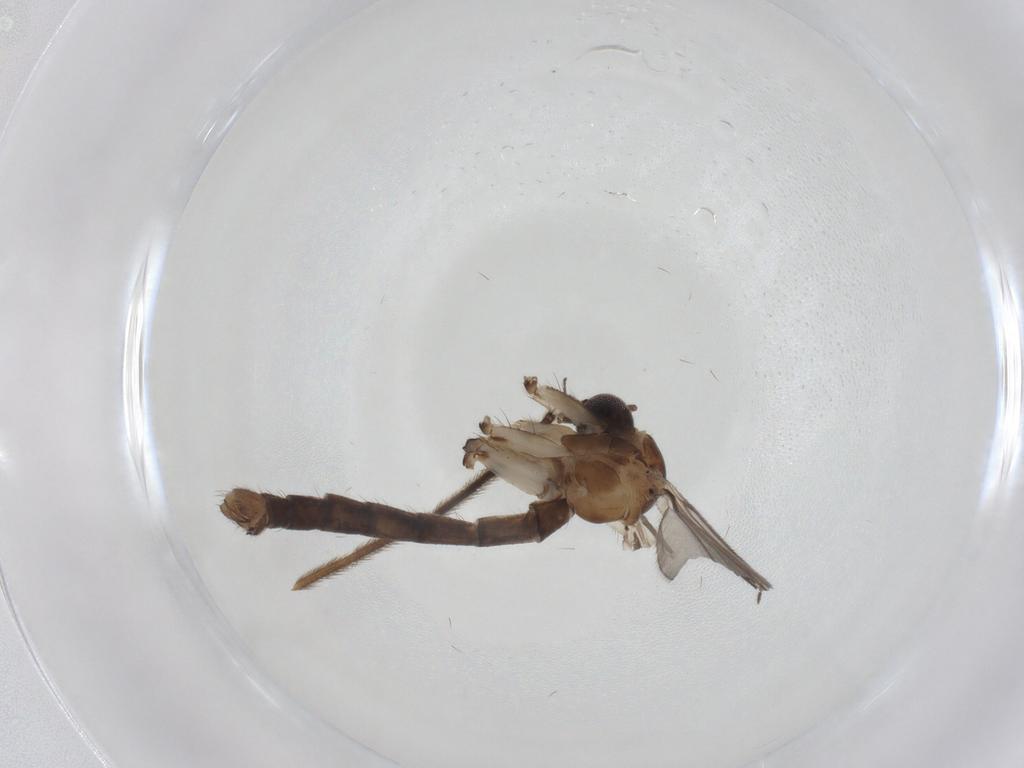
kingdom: Animalia
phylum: Arthropoda
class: Insecta
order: Diptera
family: Mycetophilidae
